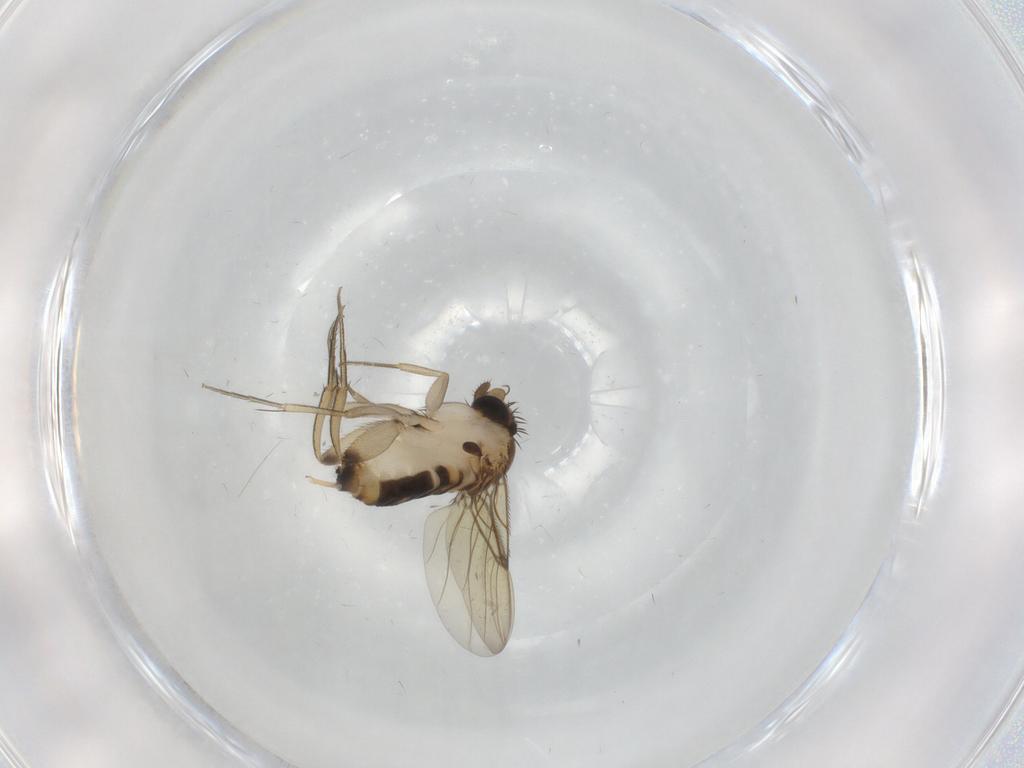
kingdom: Animalia
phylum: Arthropoda
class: Insecta
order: Diptera
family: Phoridae
